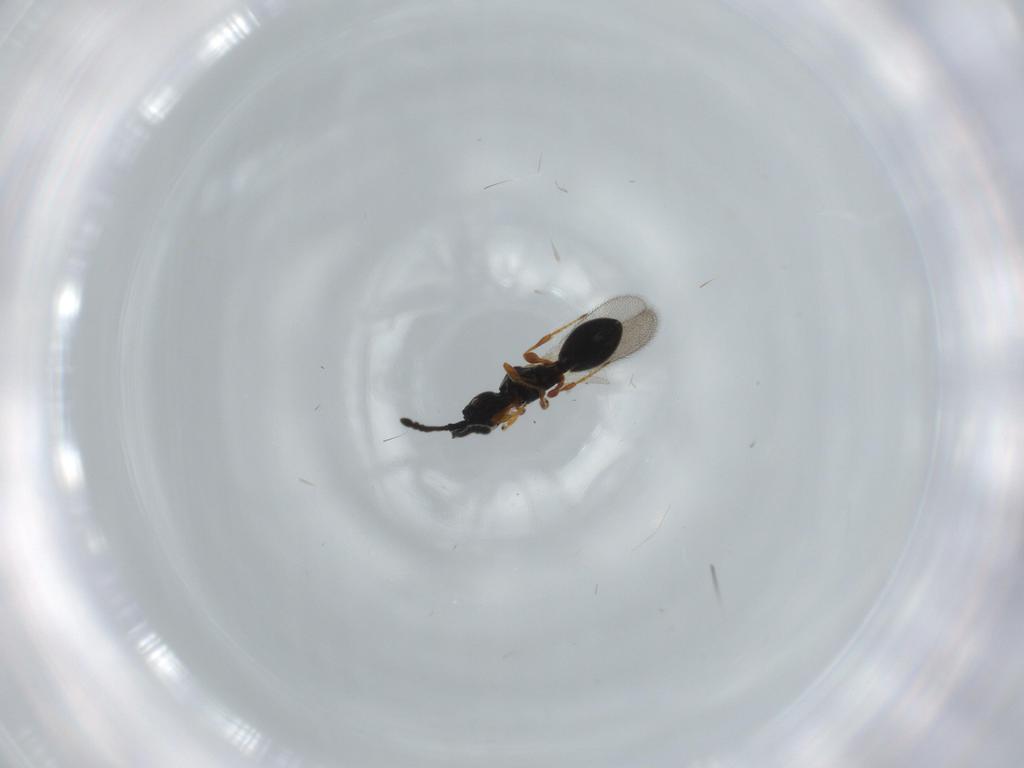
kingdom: Animalia
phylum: Arthropoda
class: Insecta
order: Hymenoptera
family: Diapriidae
